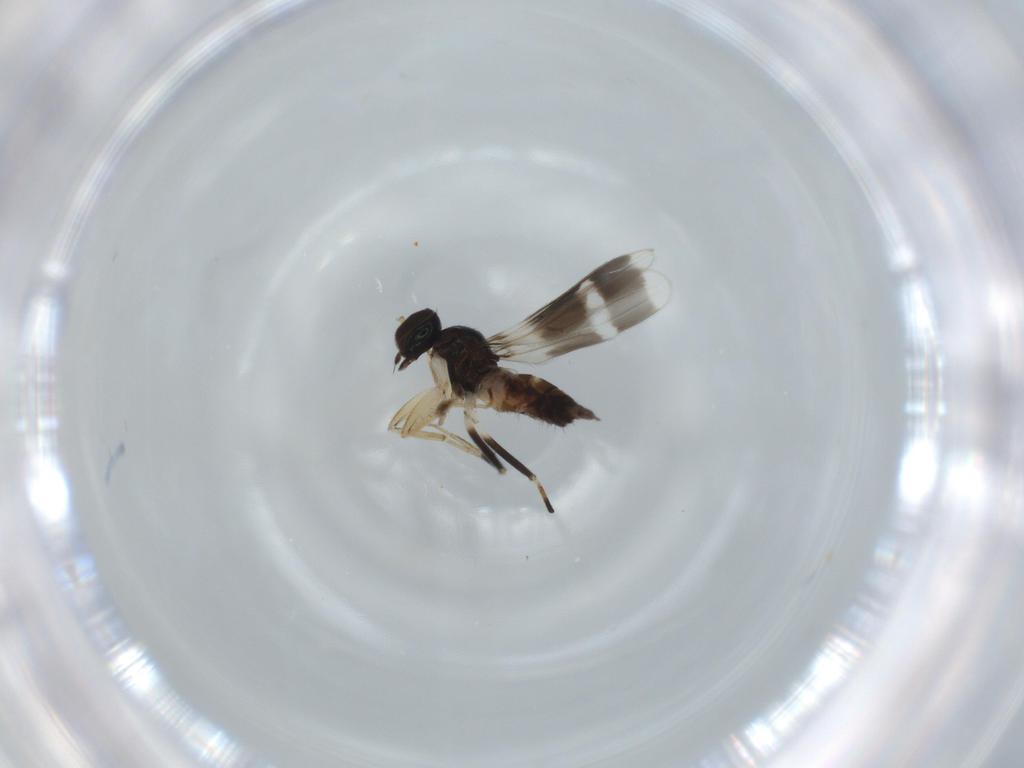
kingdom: Animalia
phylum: Arthropoda
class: Insecta
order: Diptera
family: Hybotidae
